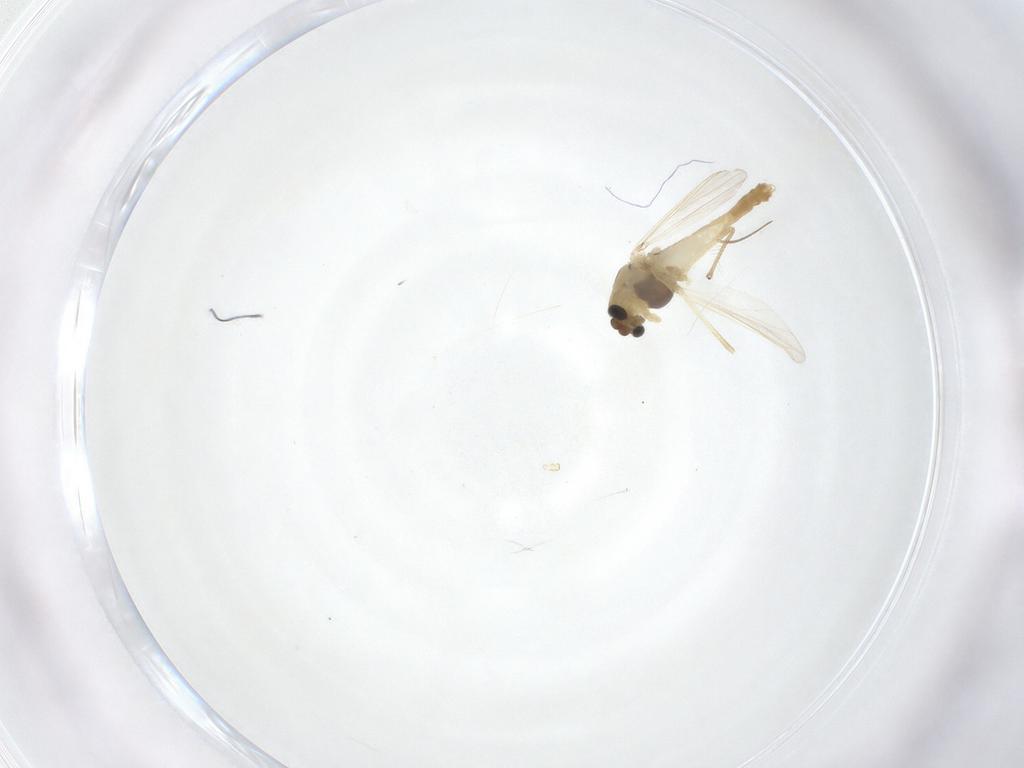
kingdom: Animalia
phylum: Arthropoda
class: Insecta
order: Diptera
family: Chironomidae
